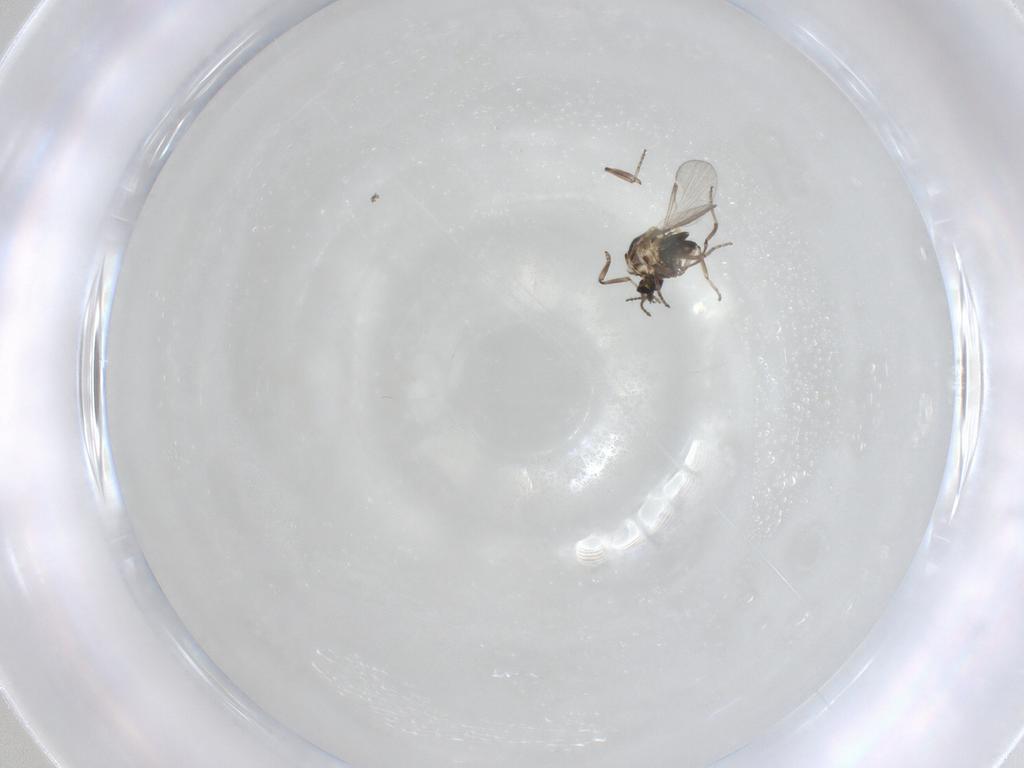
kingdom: Animalia
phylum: Arthropoda
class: Insecta
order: Diptera
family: Ceratopogonidae
